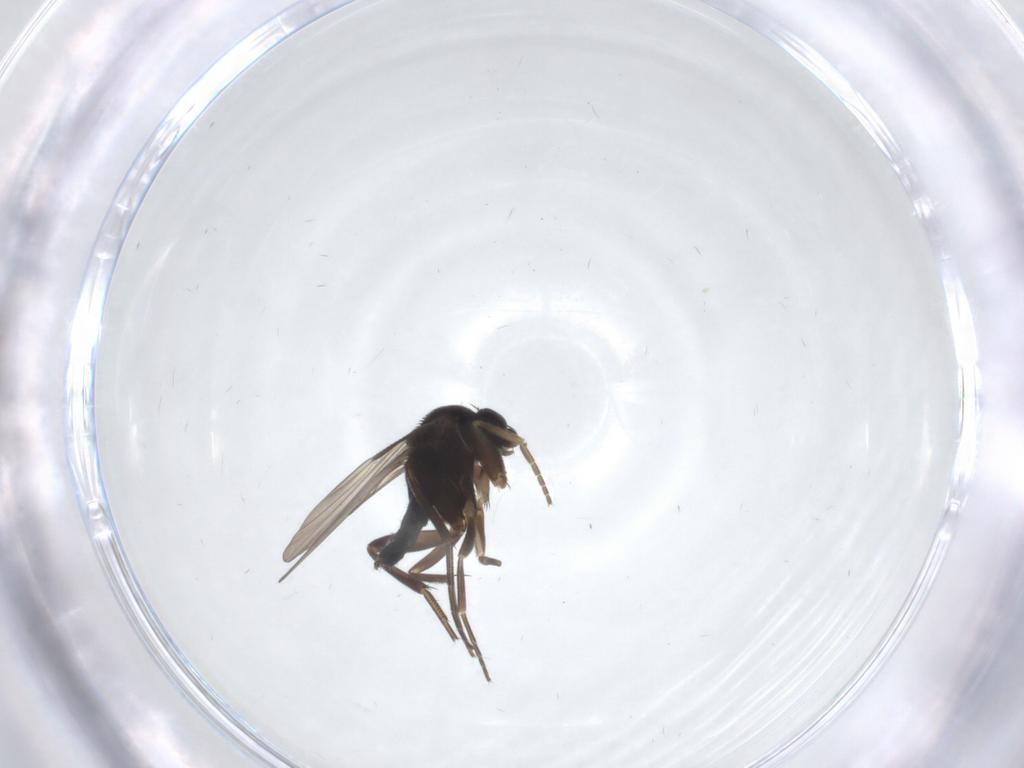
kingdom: Animalia
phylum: Arthropoda
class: Insecta
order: Diptera
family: Phoridae
